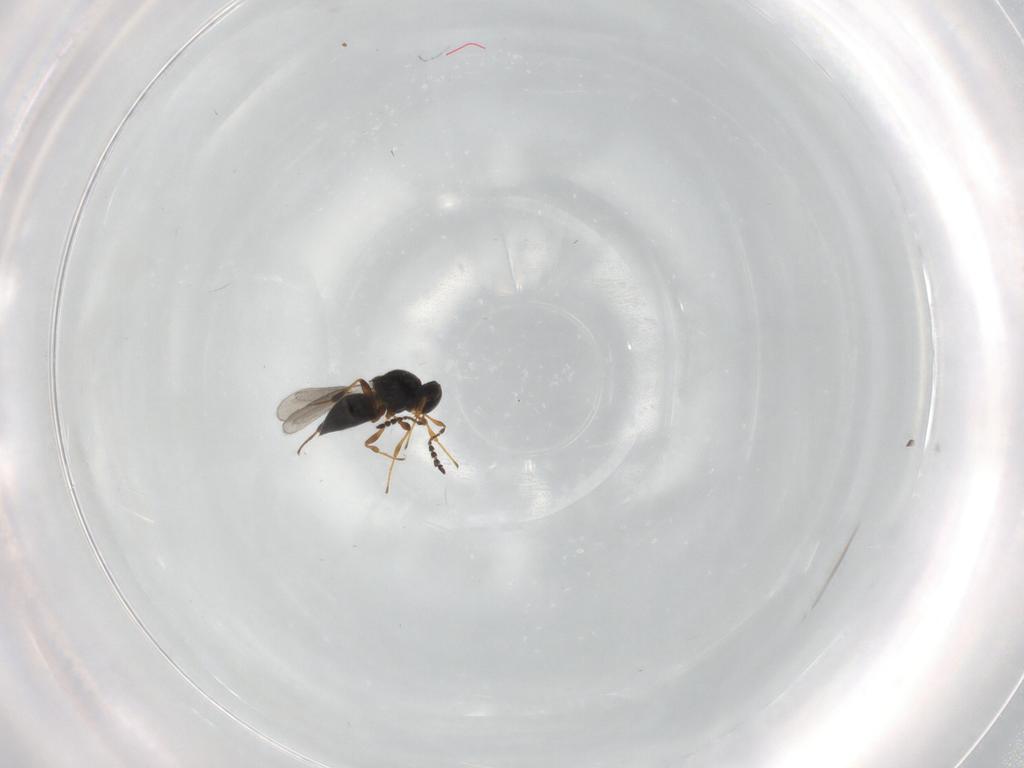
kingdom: Animalia
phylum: Arthropoda
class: Insecta
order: Hymenoptera
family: Platygastridae
